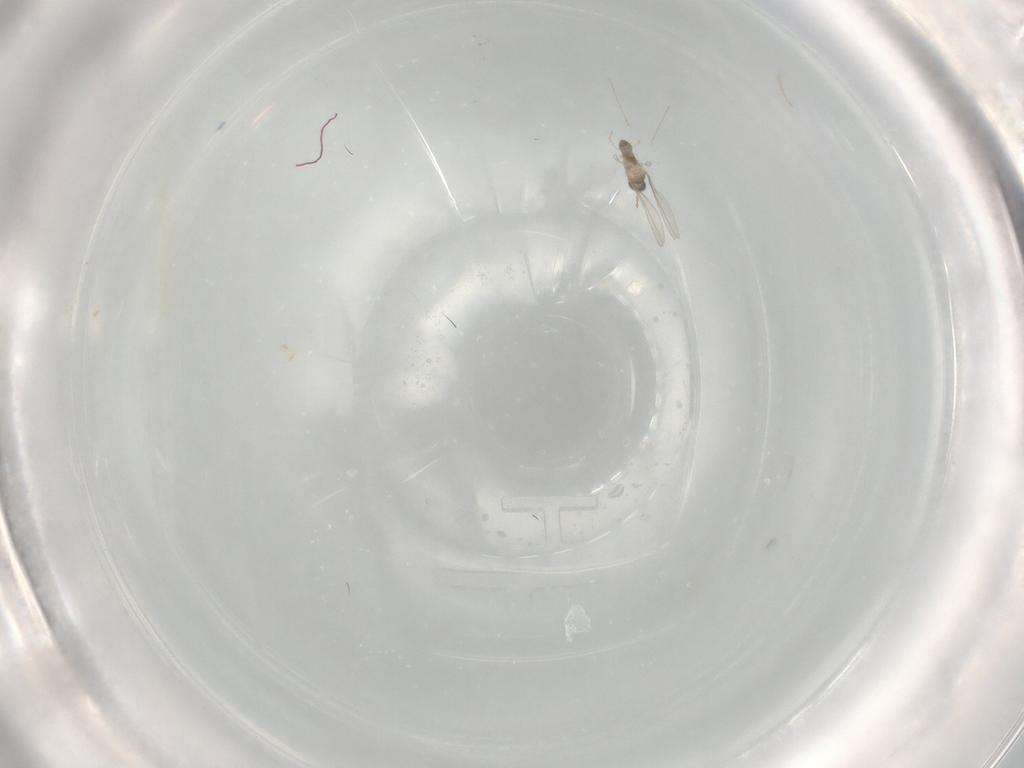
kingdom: Animalia
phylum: Arthropoda
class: Insecta
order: Diptera
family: Cecidomyiidae
